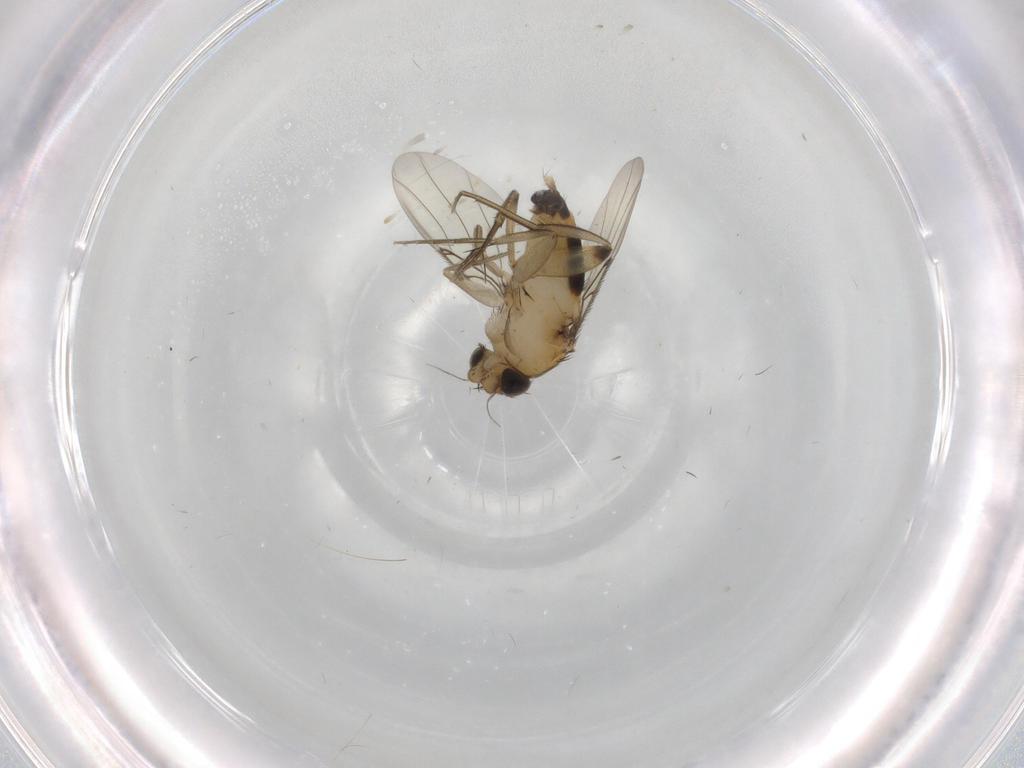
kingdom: Animalia
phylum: Arthropoda
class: Insecta
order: Diptera
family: Phoridae
